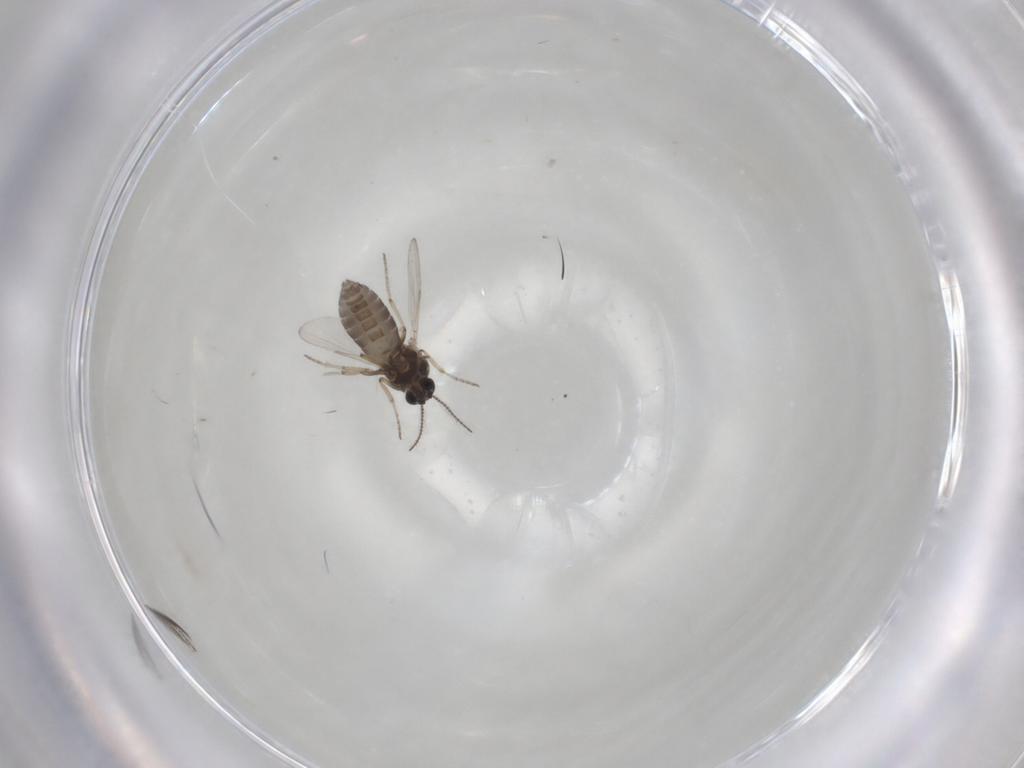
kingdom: Animalia
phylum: Arthropoda
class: Insecta
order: Diptera
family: Ceratopogonidae
